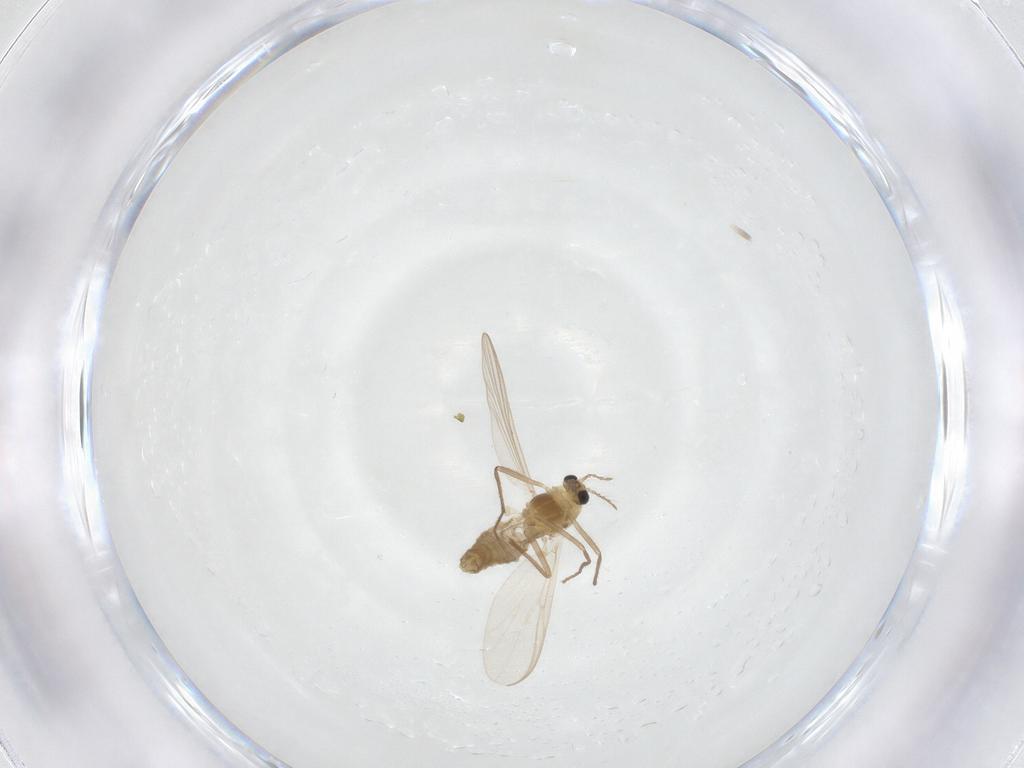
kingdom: Animalia
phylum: Arthropoda
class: Insecta
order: Diptera
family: Chironomidae
